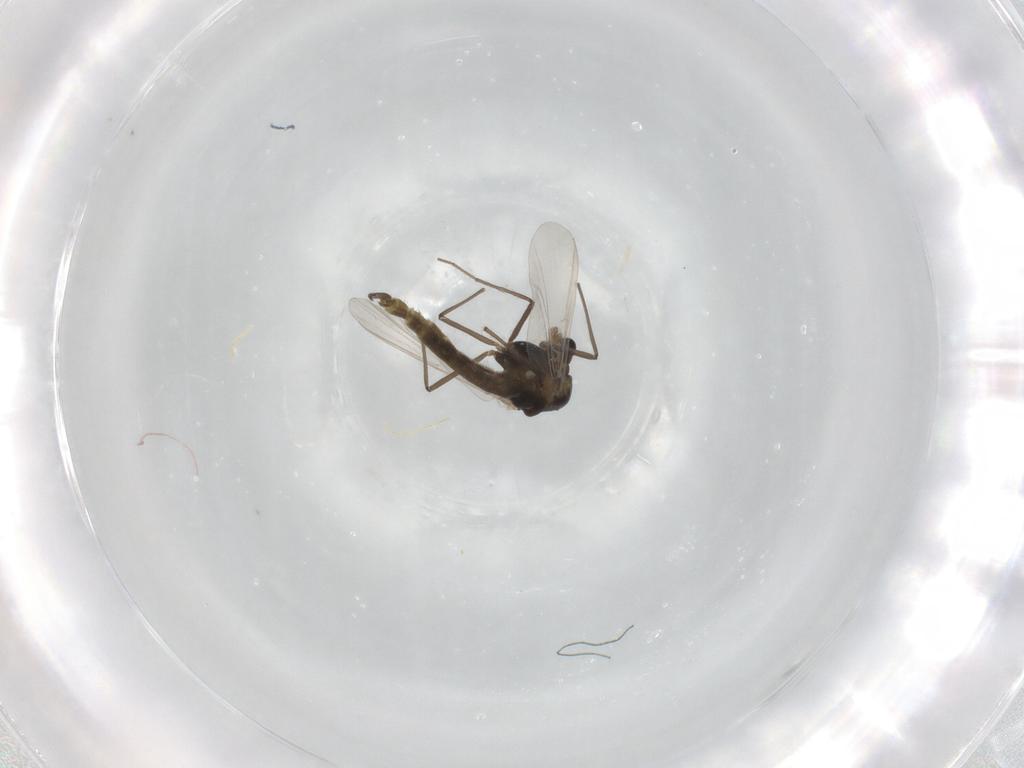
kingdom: Animalia
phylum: Arthropoda
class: Insecta
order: Diptera
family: Chironomidae
